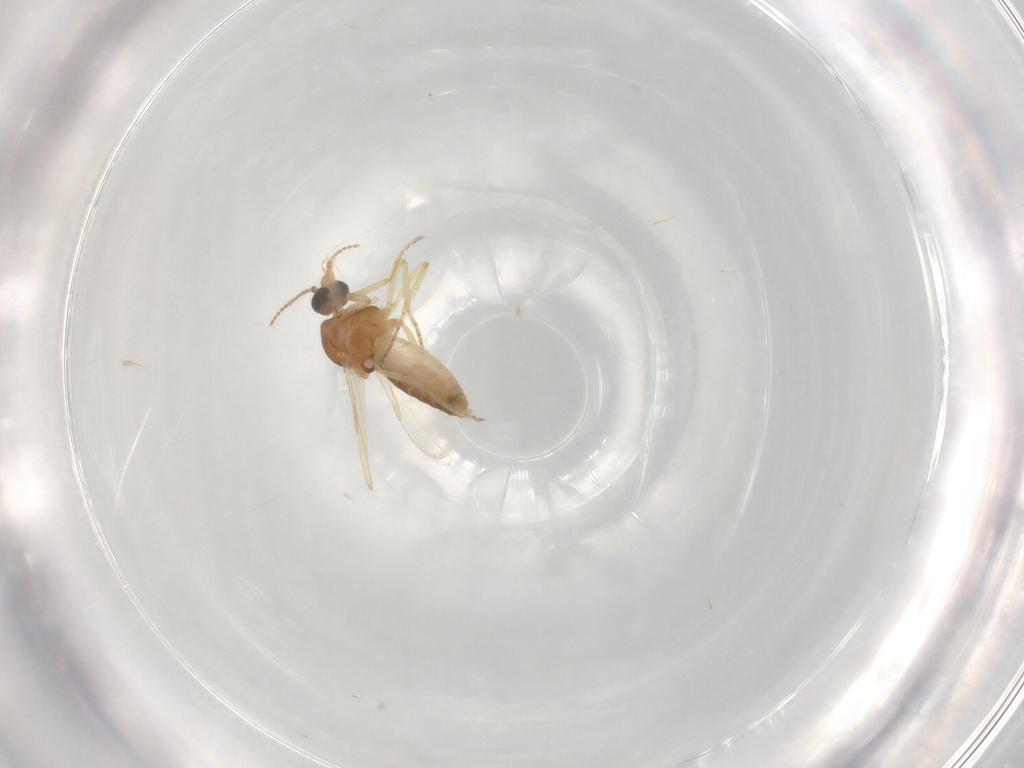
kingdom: Animalia
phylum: Arthropoda
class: Insecta
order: Diptera
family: Ceratopogonidae
